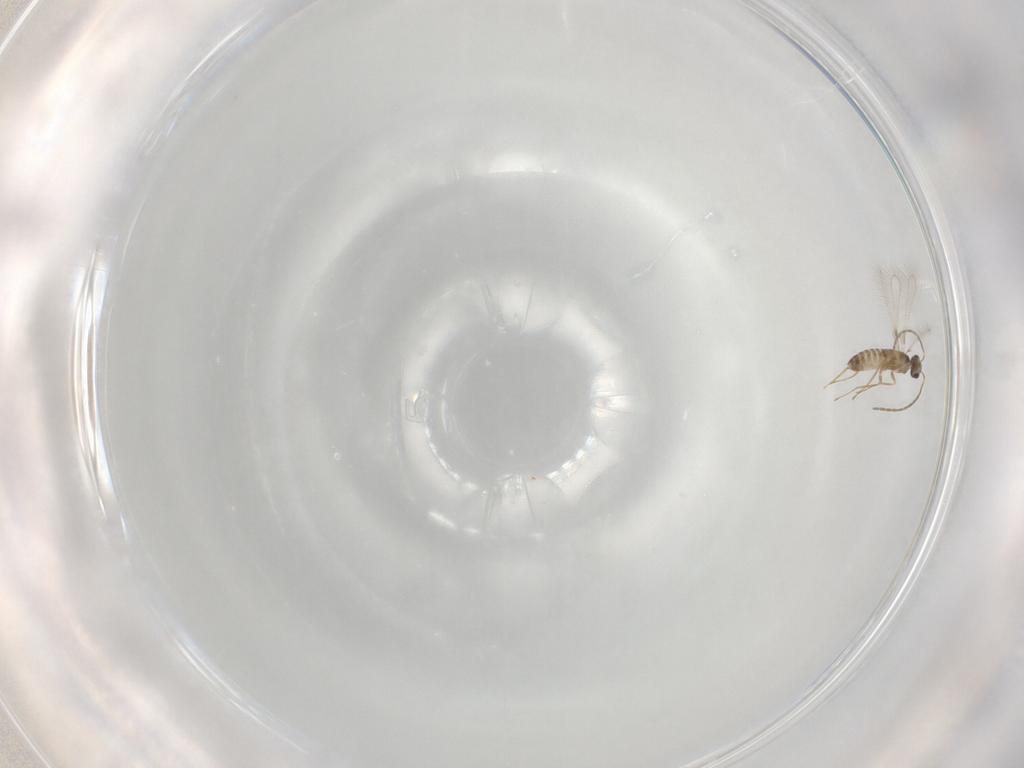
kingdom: Animalia
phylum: Arthropoda
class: Insecta
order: Hymenoptera
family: Mymaridae
